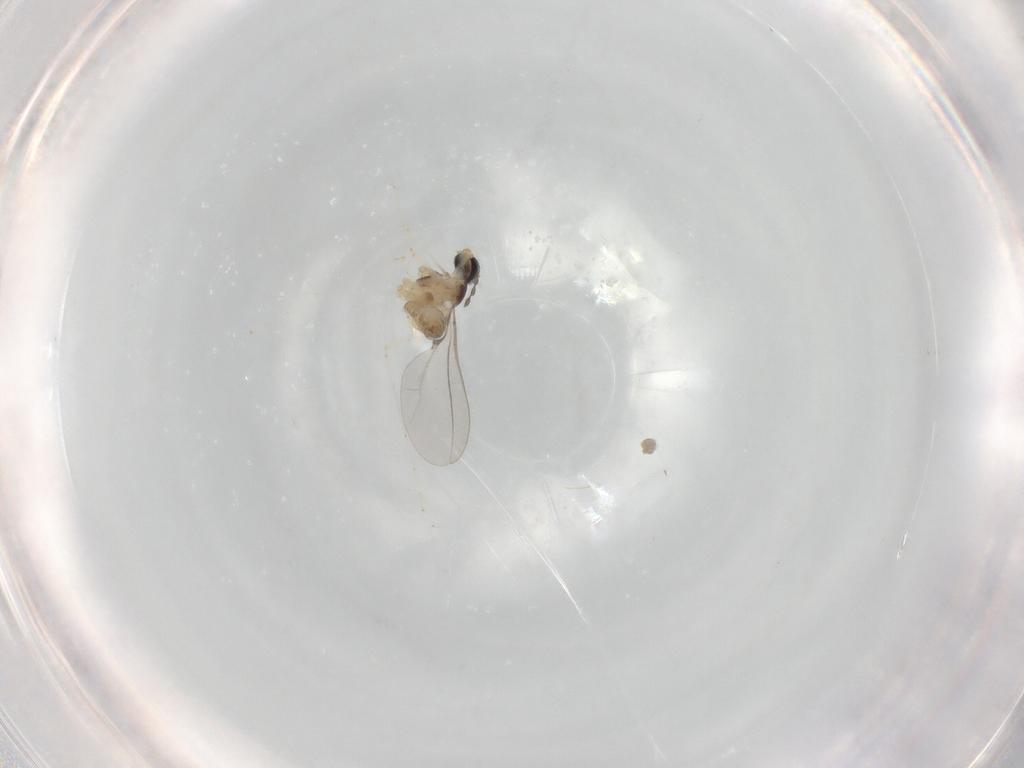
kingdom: Animalia
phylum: Arthropoda
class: Insecta
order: Diptera
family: Cecidomyiidae
